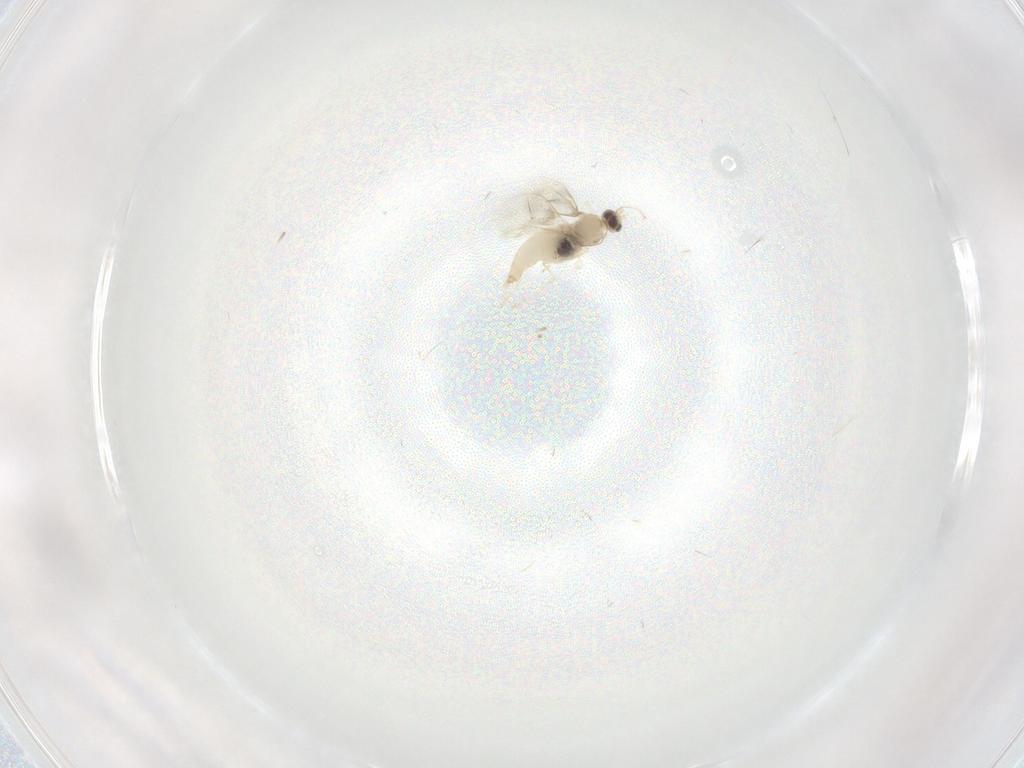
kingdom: Animalia
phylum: Arthropoda
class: Insecta
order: Diptera
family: Cecidomyiidae
